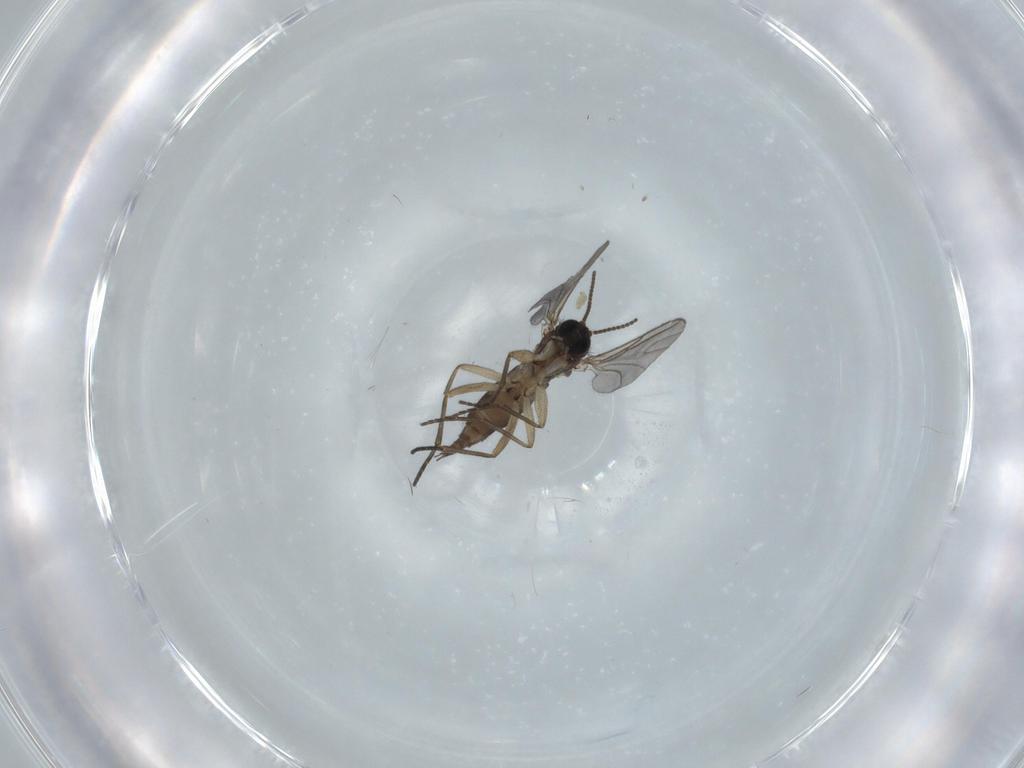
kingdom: Animalia
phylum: Arthropoda
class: Insecta
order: Diptera
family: Sciaridae
